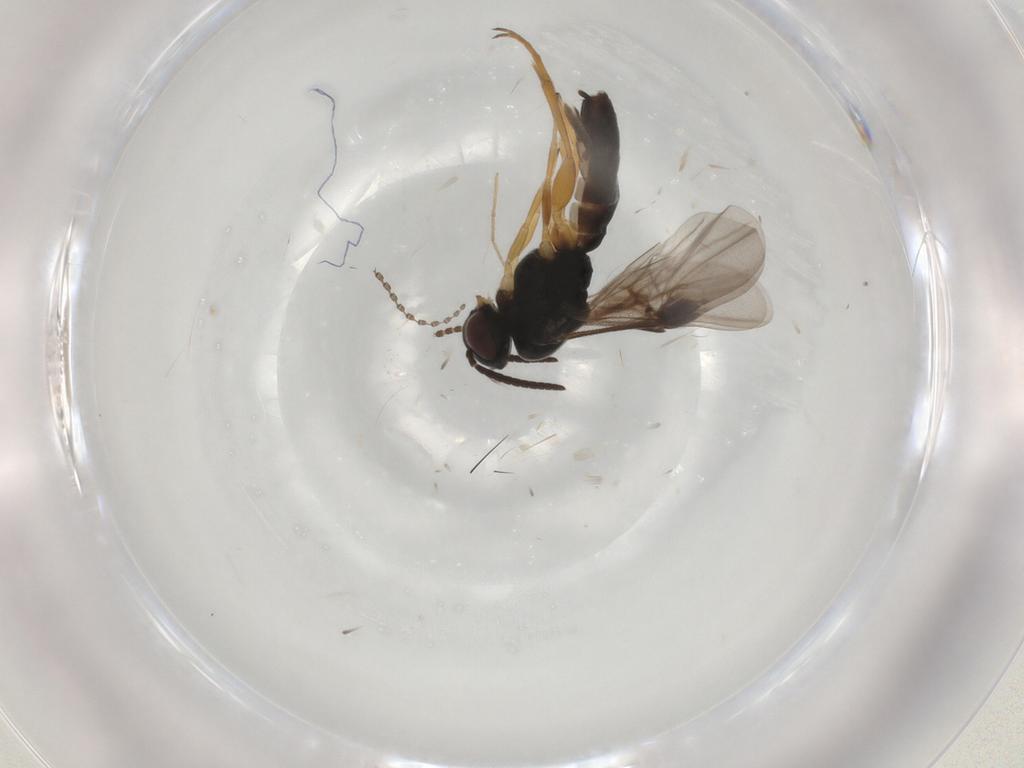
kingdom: Animalia
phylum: Arthropoda
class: Insecta
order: Hymenoptera
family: Braconidae
